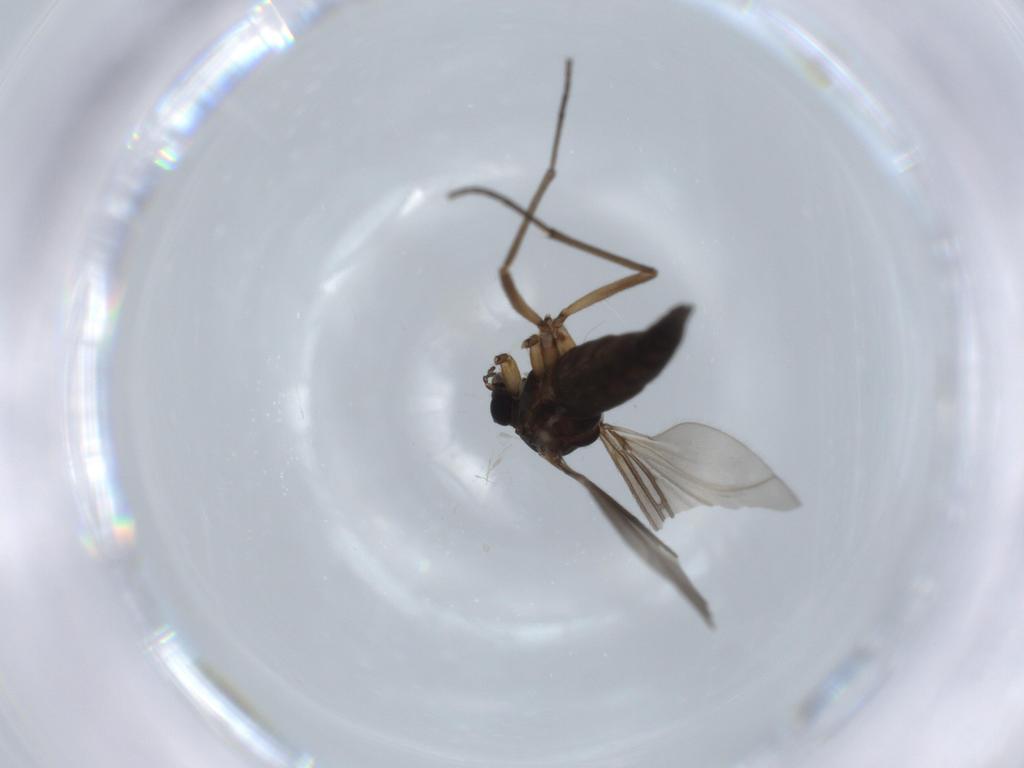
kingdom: Animalia
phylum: Arthropoda
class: Insecta
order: Diptera
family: Sciaridae
